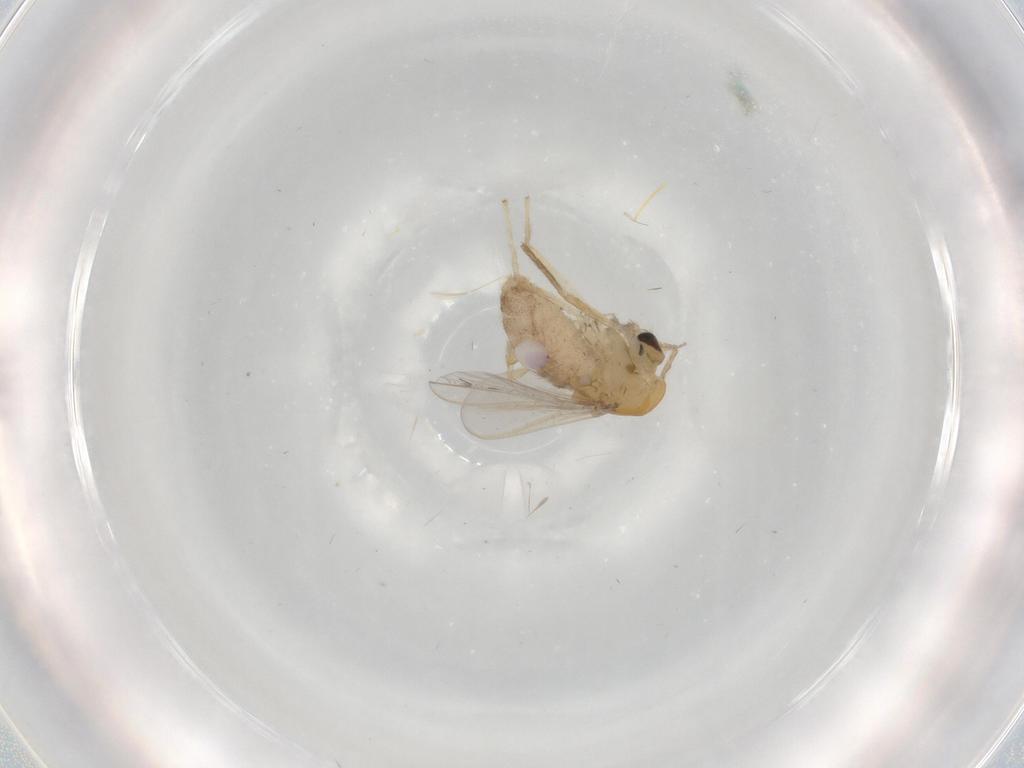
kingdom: Animalia
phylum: Arthropoda
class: Insecta
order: Diptera
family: Chironomidae
